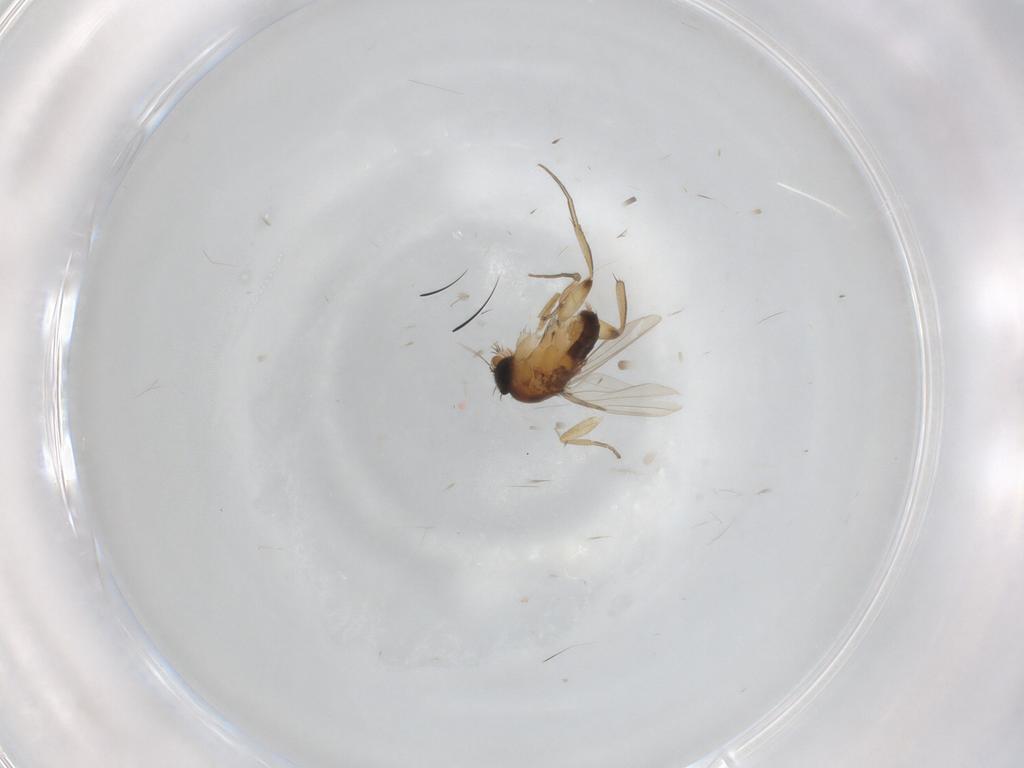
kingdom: Animalia
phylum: Arthropoda
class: Insecta
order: Diptera
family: Phoridae
